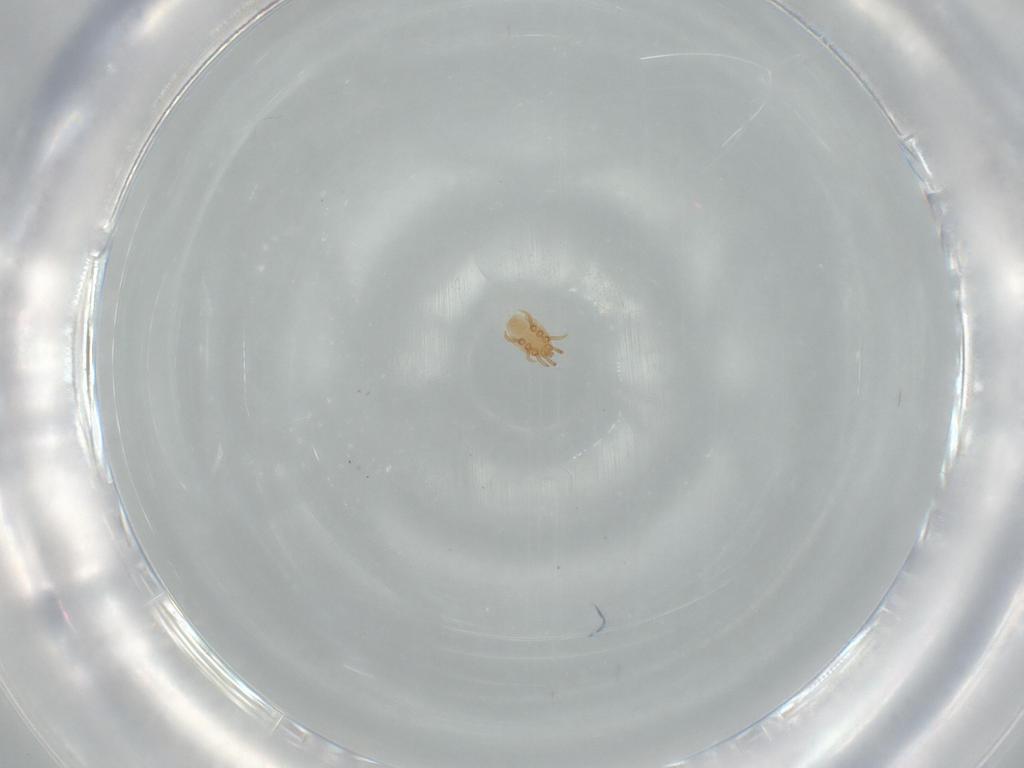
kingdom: Animalia
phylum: Arthropoda
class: Arachnida
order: Mesostigmata
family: Dinychidae
